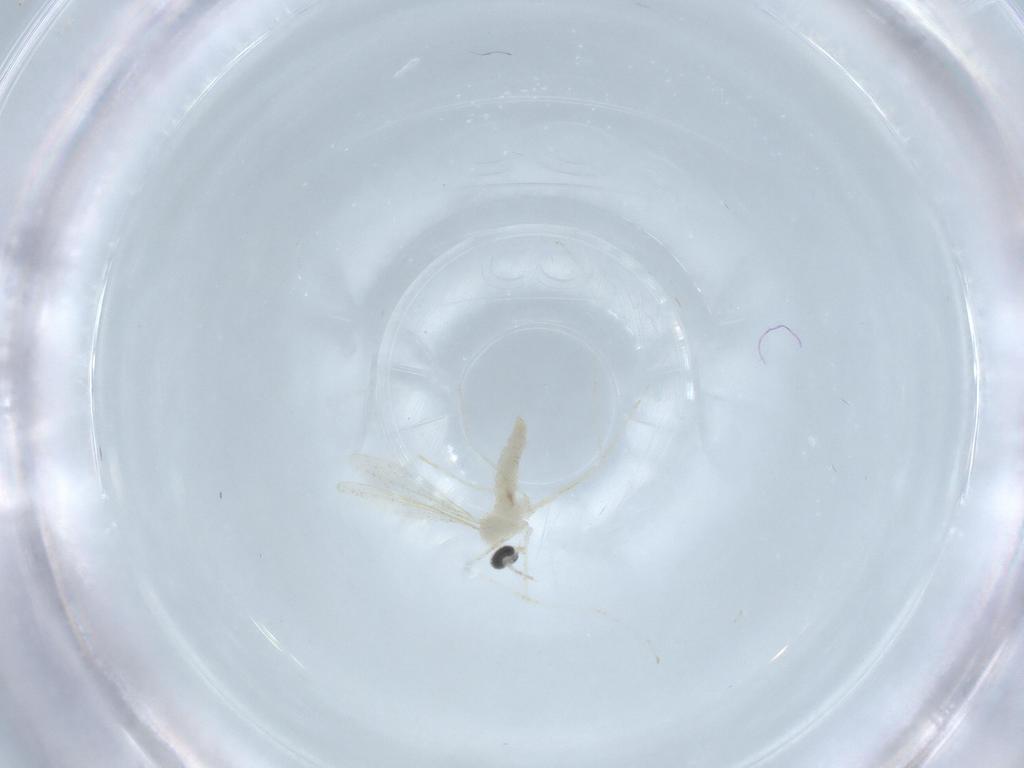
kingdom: Animalia
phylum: Arthropoda
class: Insecta
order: Diptera
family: Cecidomyiidae
